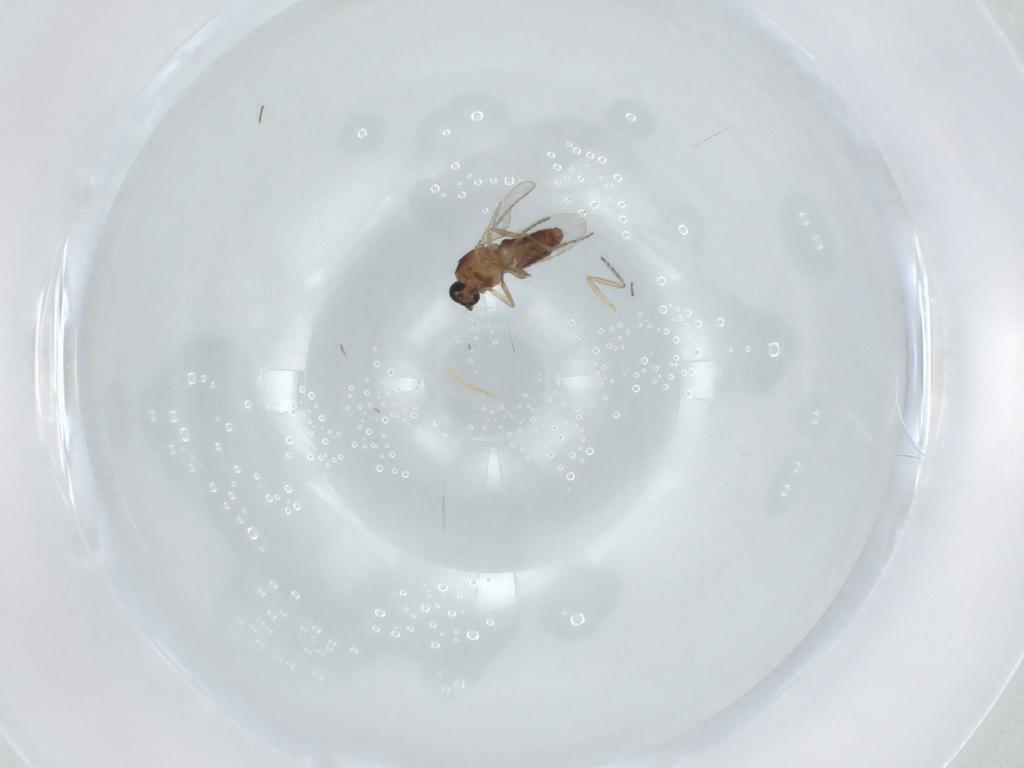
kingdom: Animalia
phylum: Arthropoda
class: Insecta
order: Diptera
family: Ceratopogonidae
